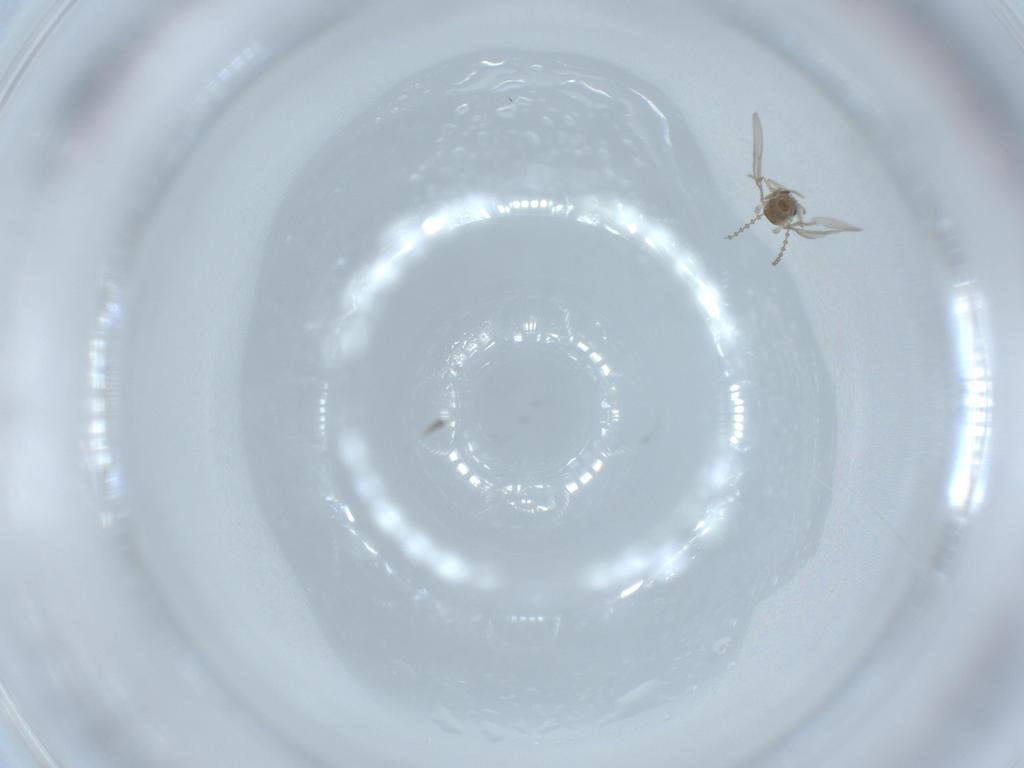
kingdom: Animalia
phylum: Arthropoda
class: Insecta
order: Diptera
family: Cecidomyiidae
